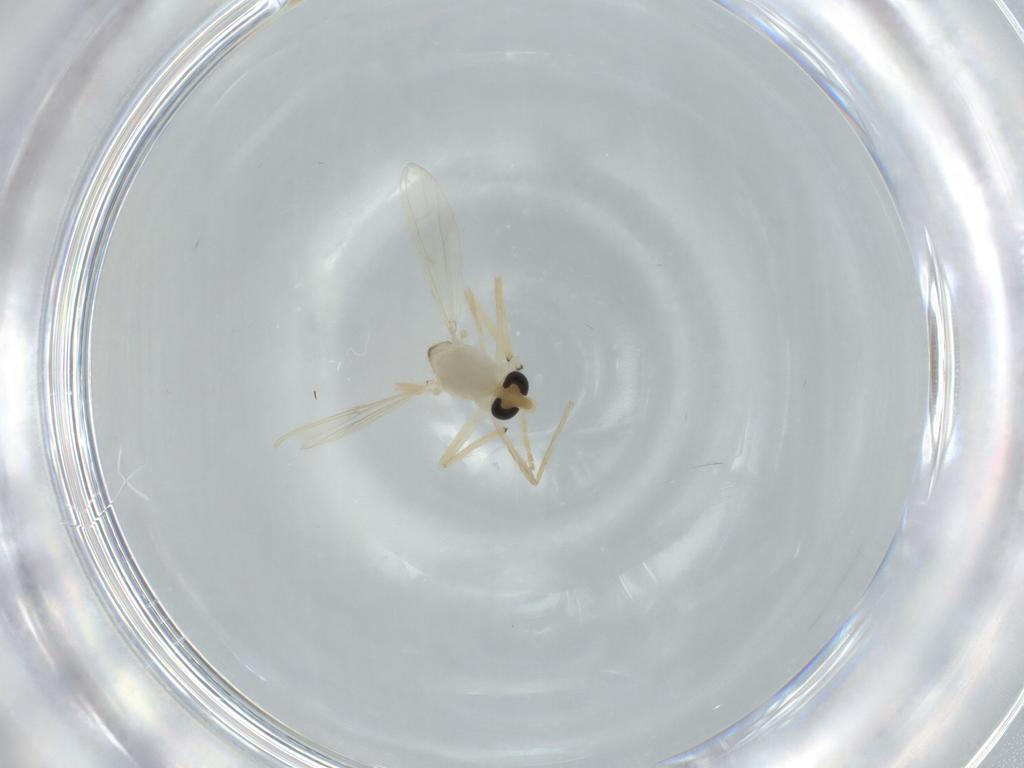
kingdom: Animalia
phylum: Arthropoda
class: Insecta
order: Diptera
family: Chironomidae
